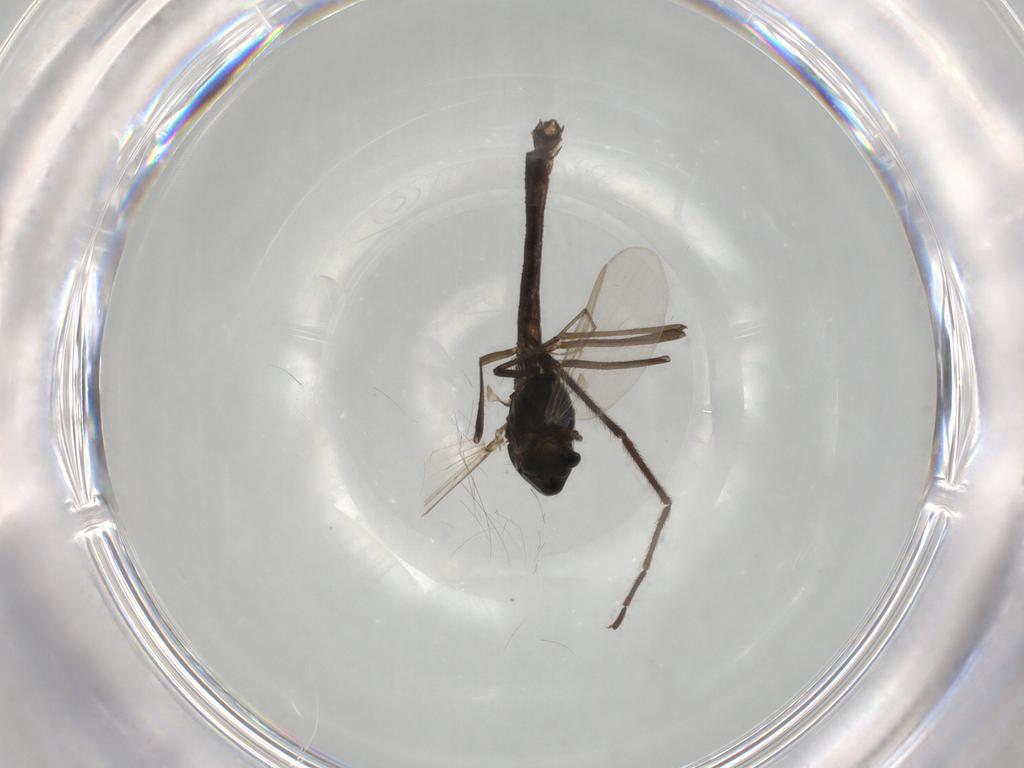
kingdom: Animalia
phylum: Arthropoda
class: Insecta
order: Diptera
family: Chironomidae
